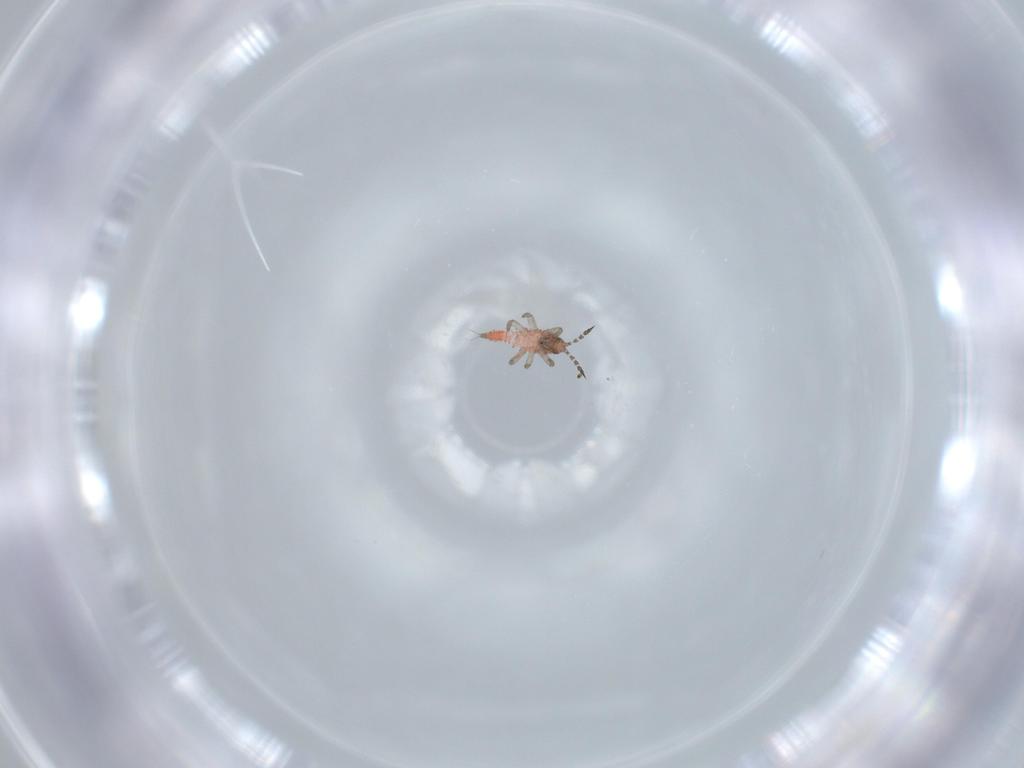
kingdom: Animalia
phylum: Arthropoda
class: Insecta
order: Thysanoptera
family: Phlaeothripidae
